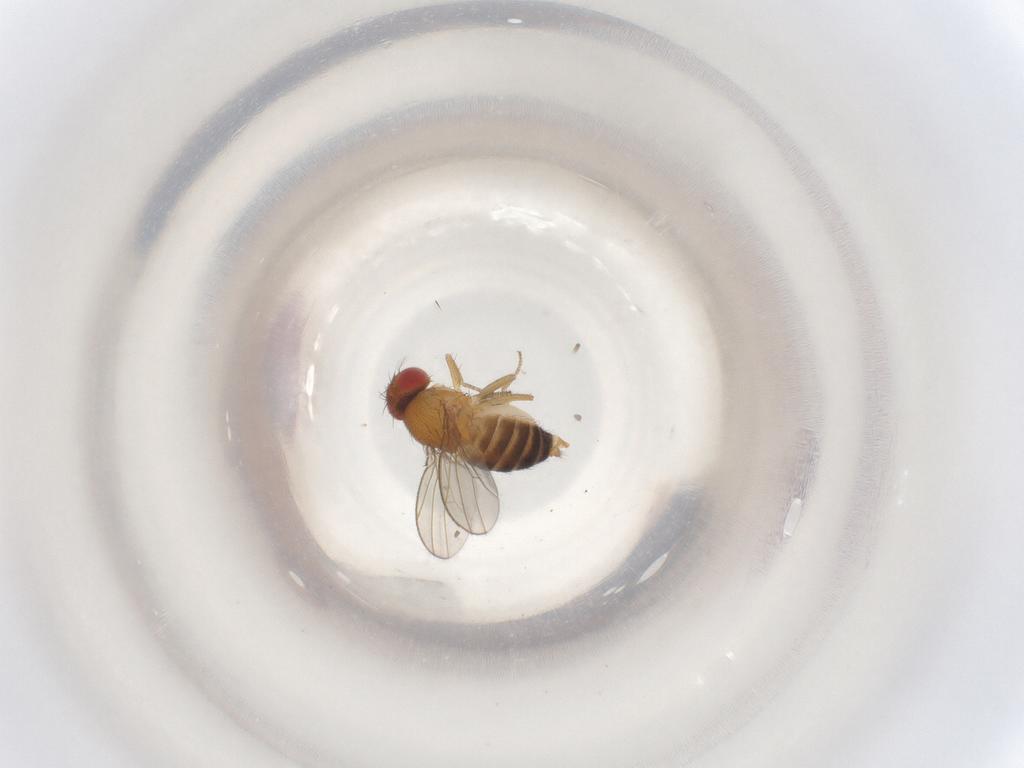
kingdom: Animalia
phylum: Arthropoda
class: Insecta
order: Diptera
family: Drosophilidae
